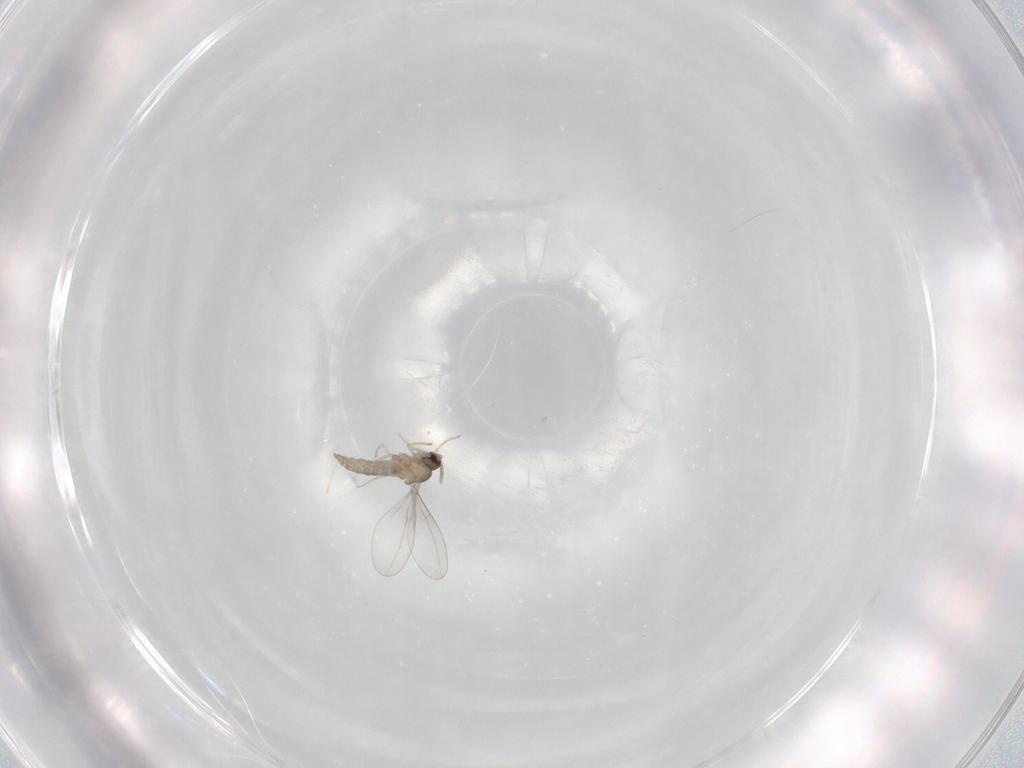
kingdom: Animalia
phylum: Arthropoda
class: Insecta
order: Diptera
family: Cecidomyiidae
